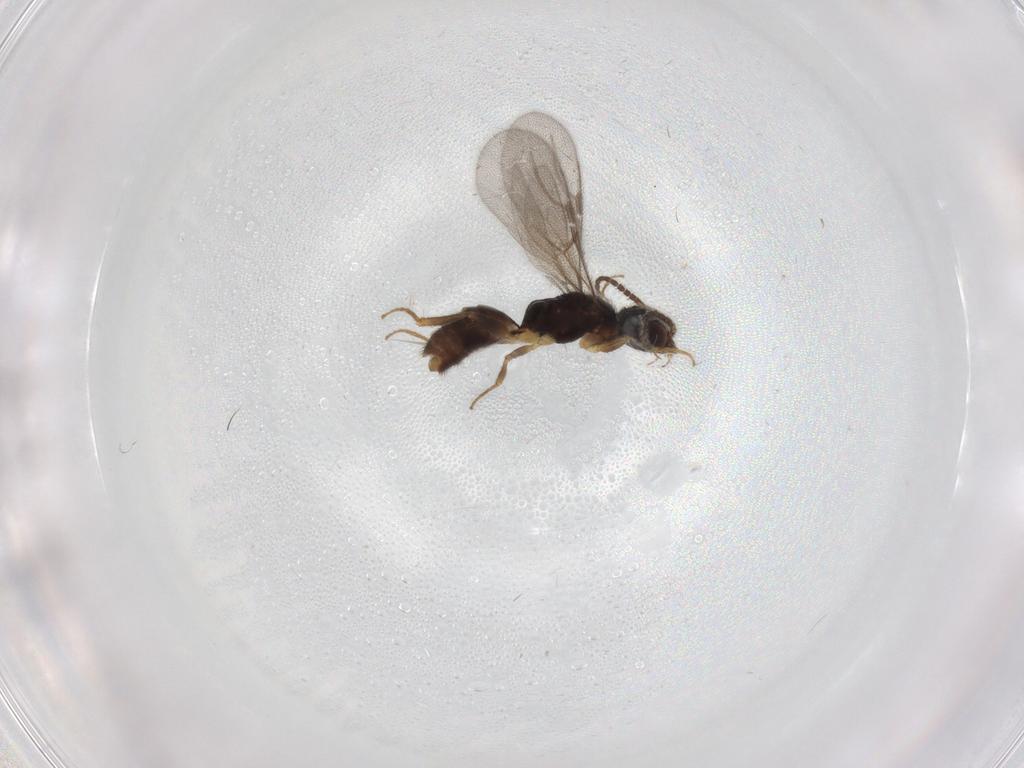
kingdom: Animalia
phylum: Arthropoda
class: Insecta
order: Hymenoptera
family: Bethylidae
